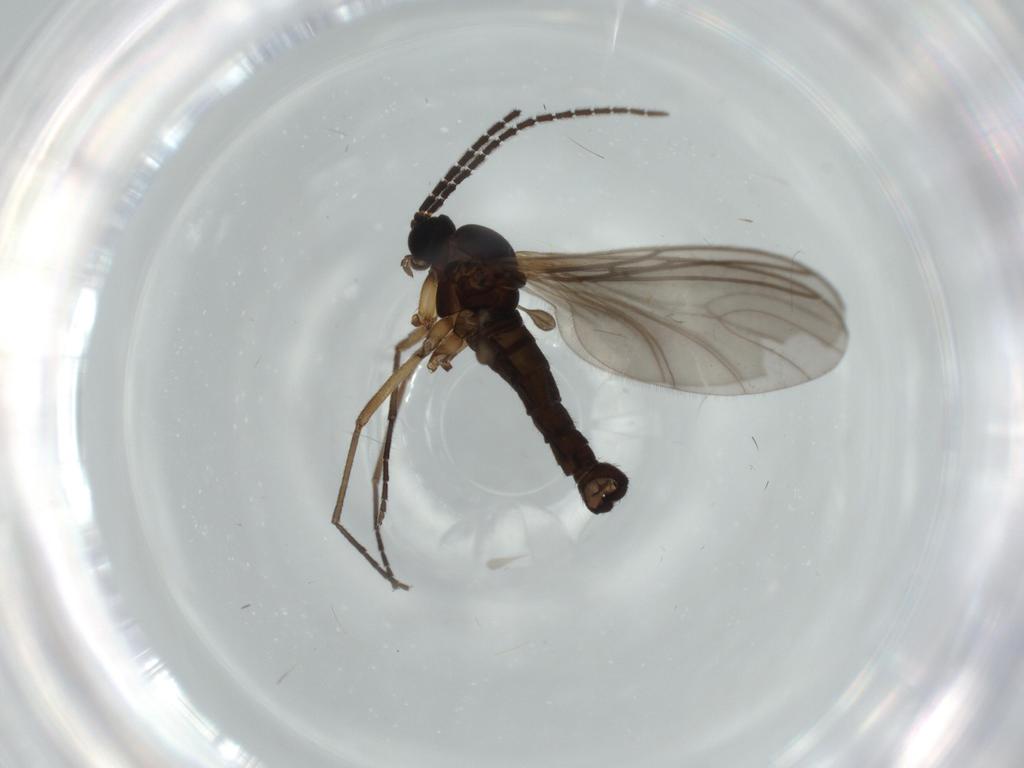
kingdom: Animalia
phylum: Arthropoda
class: Insecta
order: Diptera
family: Sciaridae
